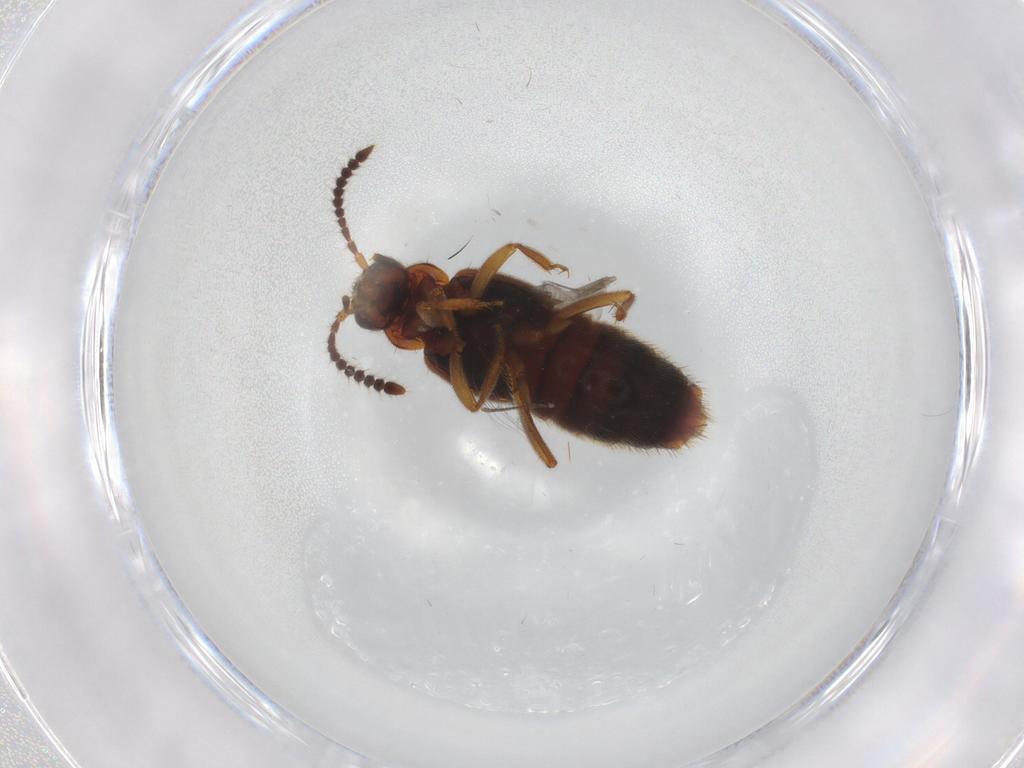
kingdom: Animalia
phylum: Arthropoda
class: Insecta
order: Coleoptera
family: Staphylinidae
